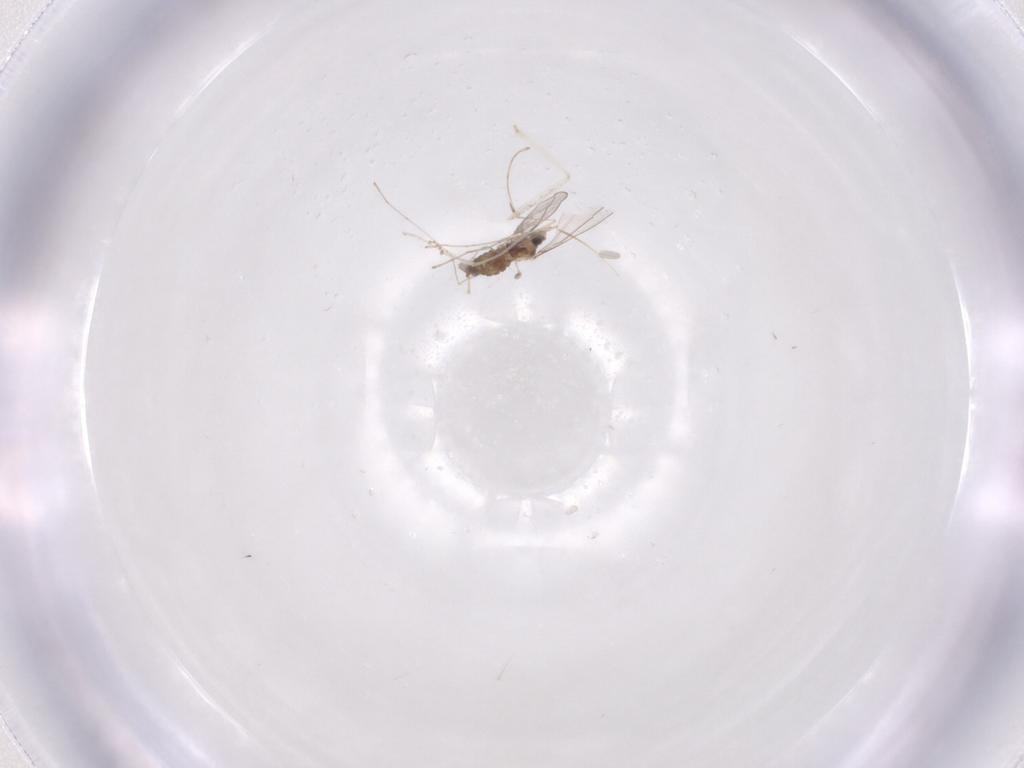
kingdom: Animalia
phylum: Arthropoda
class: Insecta
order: Diptera
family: Cecidomyiidae
